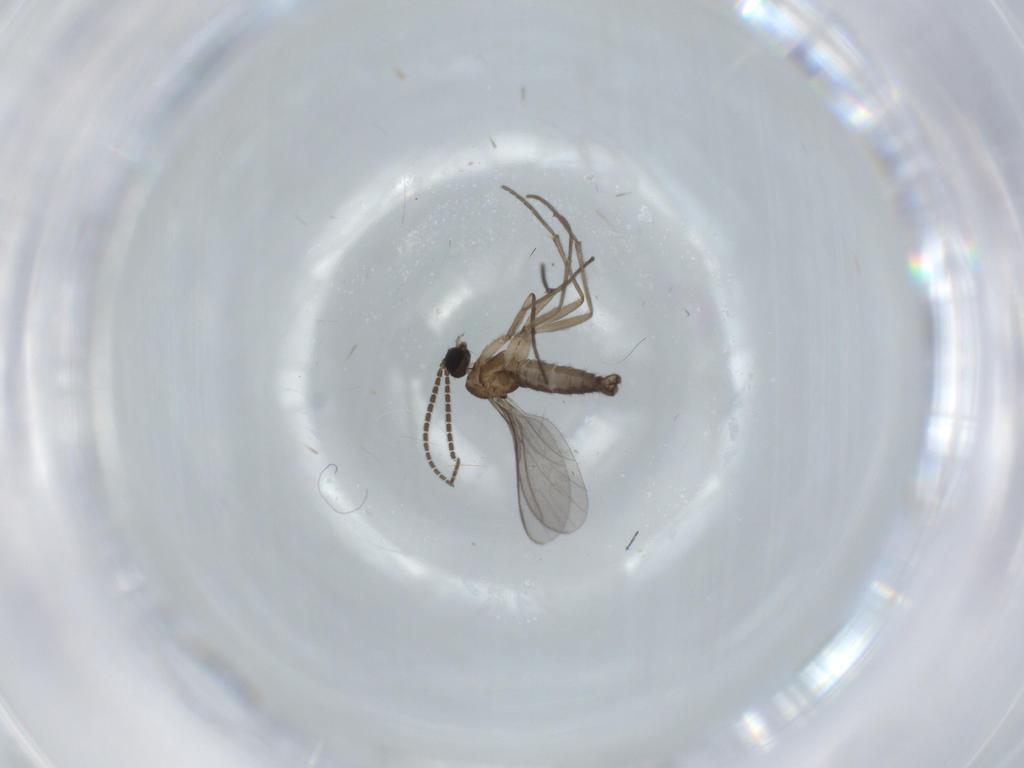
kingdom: Animalia
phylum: Arthropoda
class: Insecta
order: Diptera
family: Sciaridae
